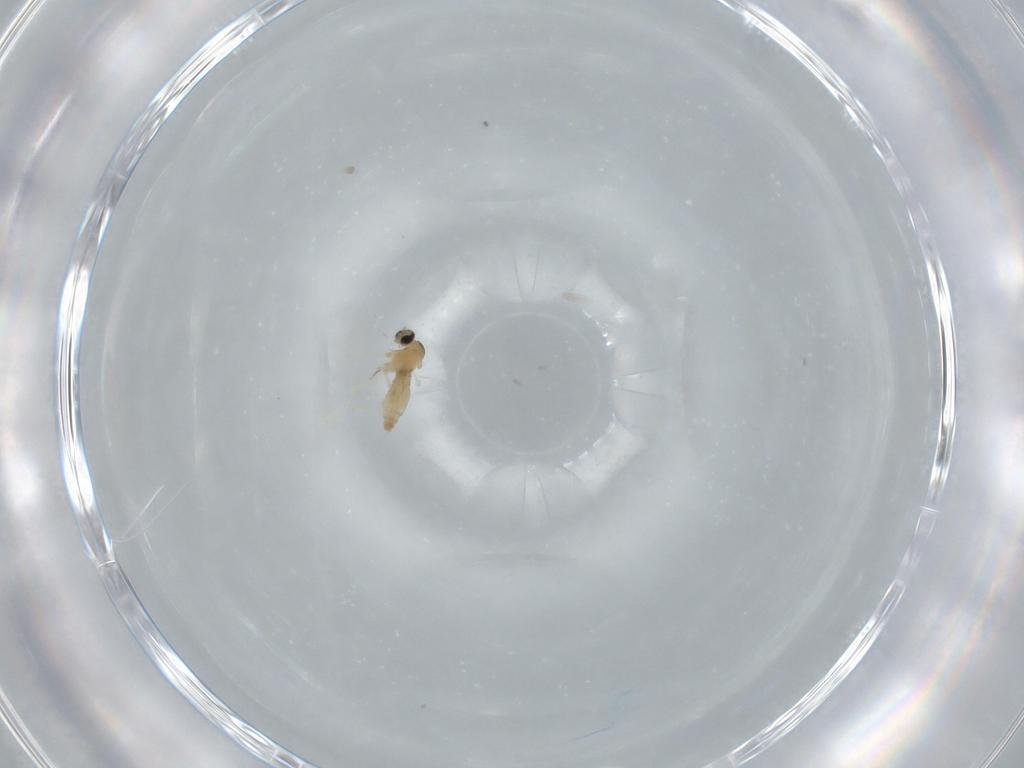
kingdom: Animalia
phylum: Arthropoda
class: Insecta
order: Diptera
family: Cecidomyiidae
